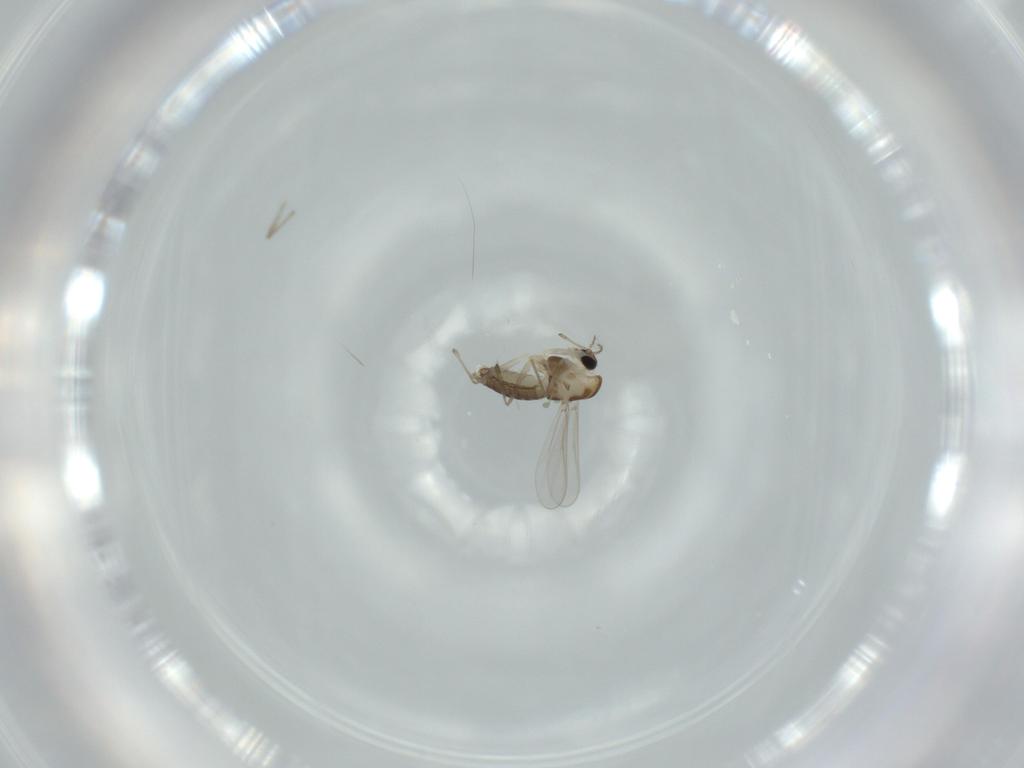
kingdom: Animalia
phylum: Arthropoda
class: Insecta
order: Diptera
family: Chironomidae
